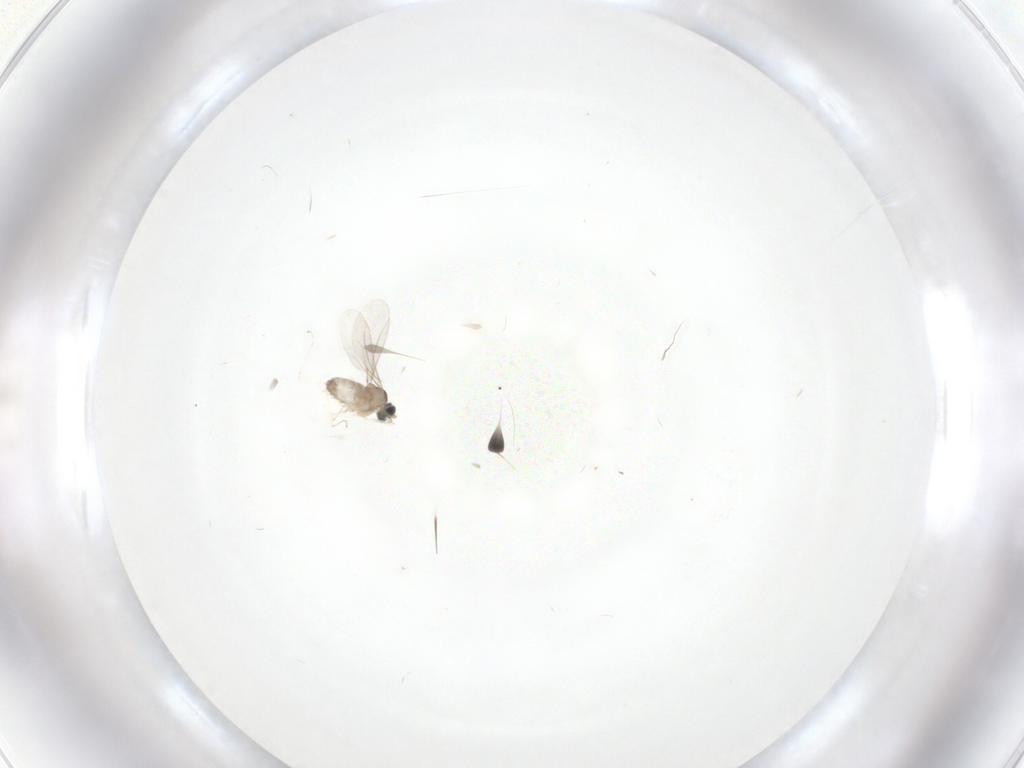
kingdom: Animalia
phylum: Arthropoda
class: Insecta
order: Diptera
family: Cecidomyiidae
